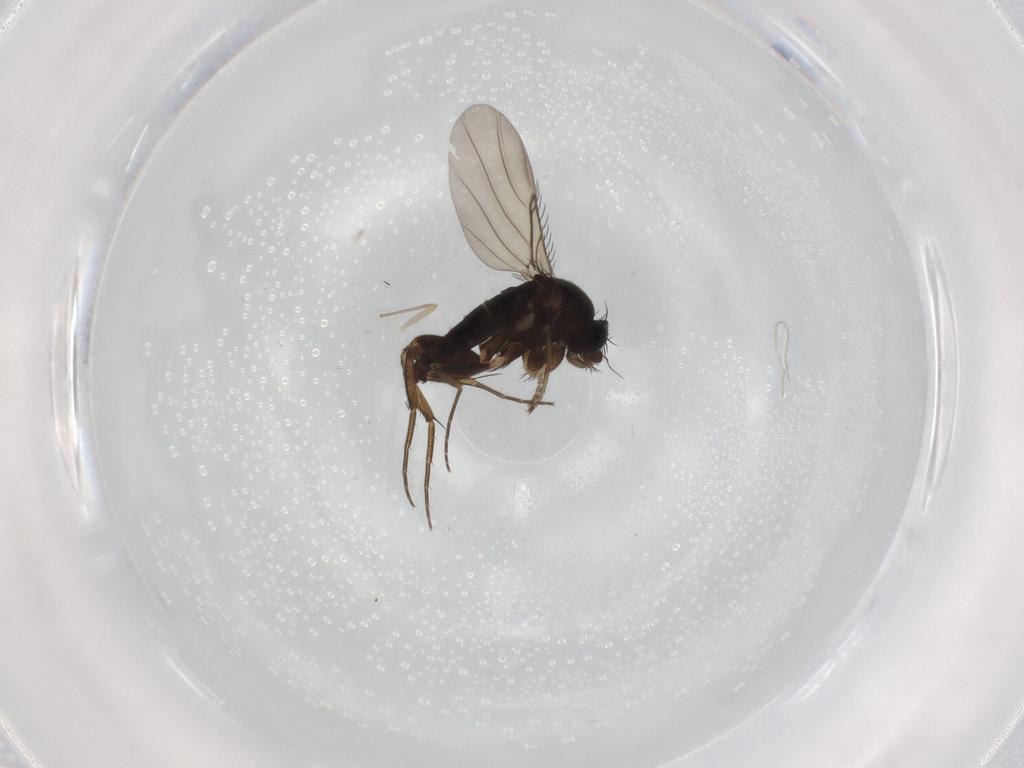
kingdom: Animalia
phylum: Arthropoda
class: Insecta
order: Diptera
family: Phoridae
